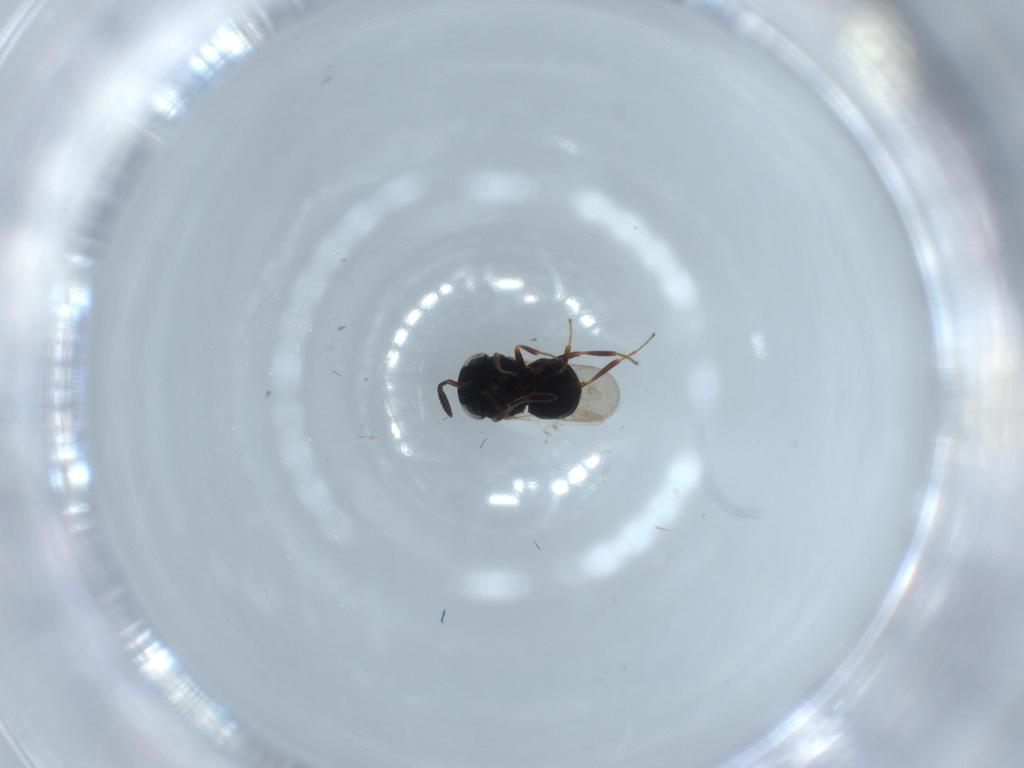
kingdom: Animalia
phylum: Arthropoda
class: Insecta
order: Hymenoptera
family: Scelionidae
